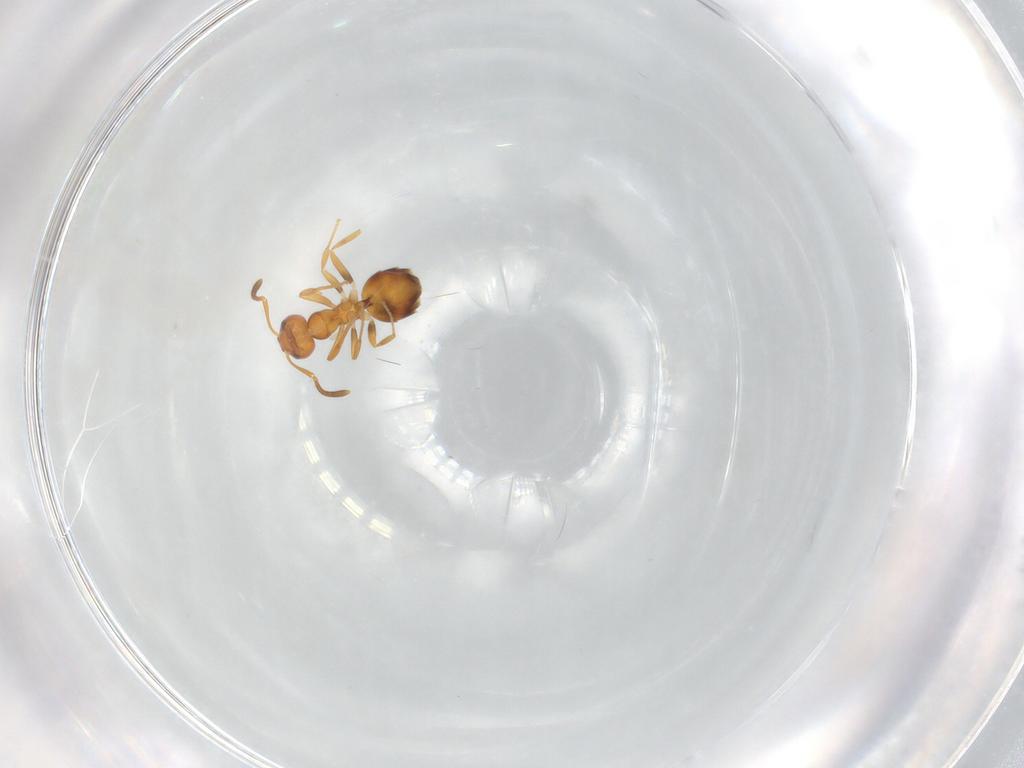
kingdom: Animalia
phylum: Arthropoda
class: Insecta
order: Hymenoptera
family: Formicidae
